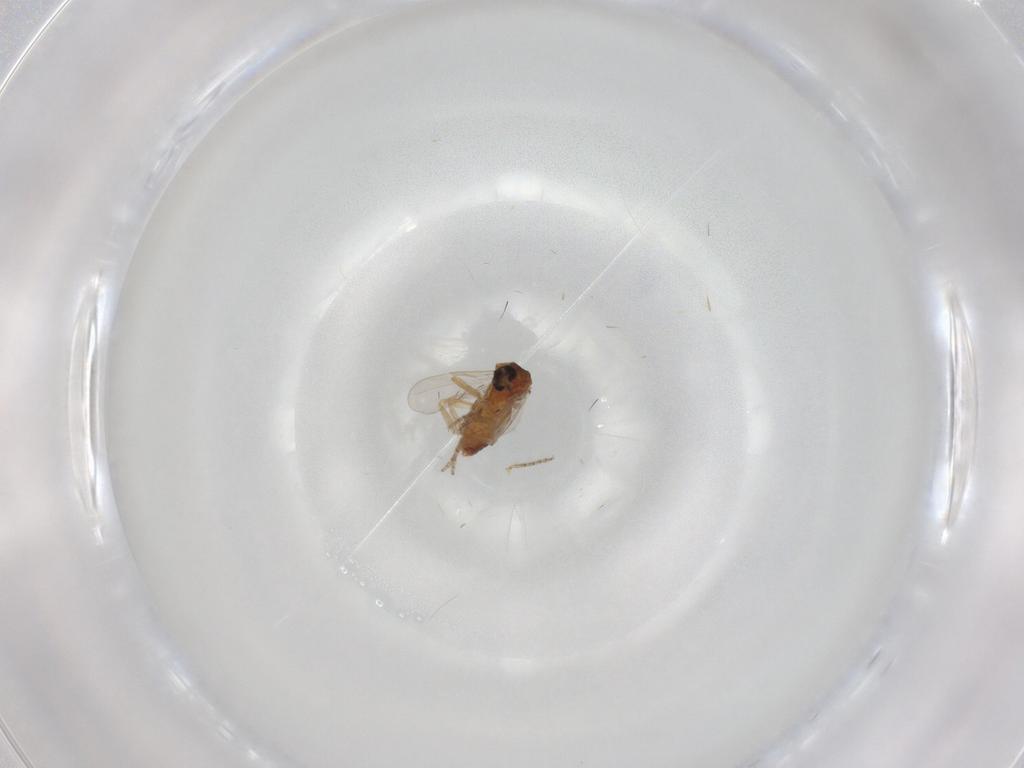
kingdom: Animalia
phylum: Arthropoda
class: Insecta
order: Diptera
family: Ceratopogonidae
